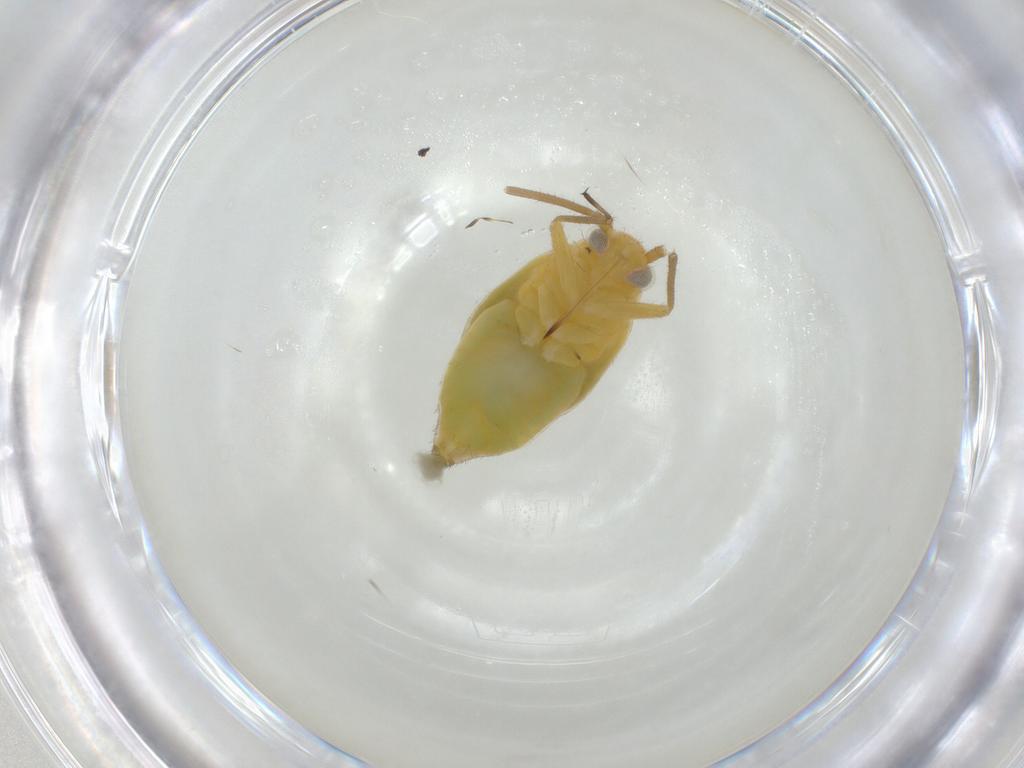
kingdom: Animalia
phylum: Arthropoda
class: Insecta
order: Hemiptera
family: Miridae
